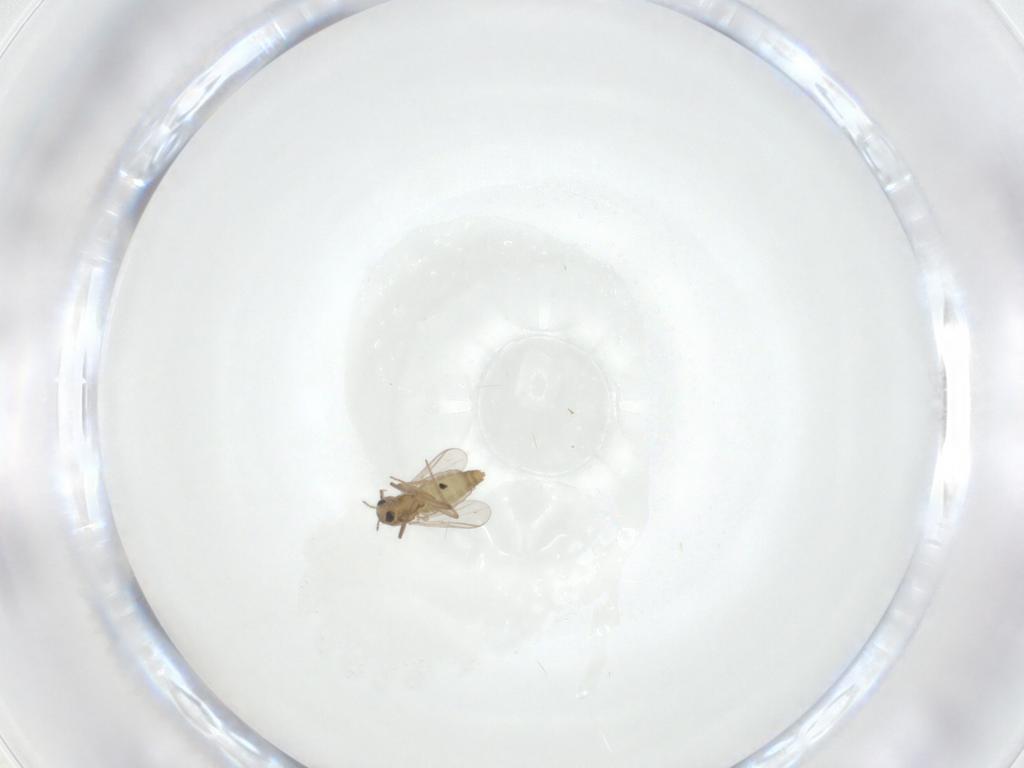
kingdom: Animalia
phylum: Arthropoda
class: Insecta
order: Diptera
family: Chironomidae
